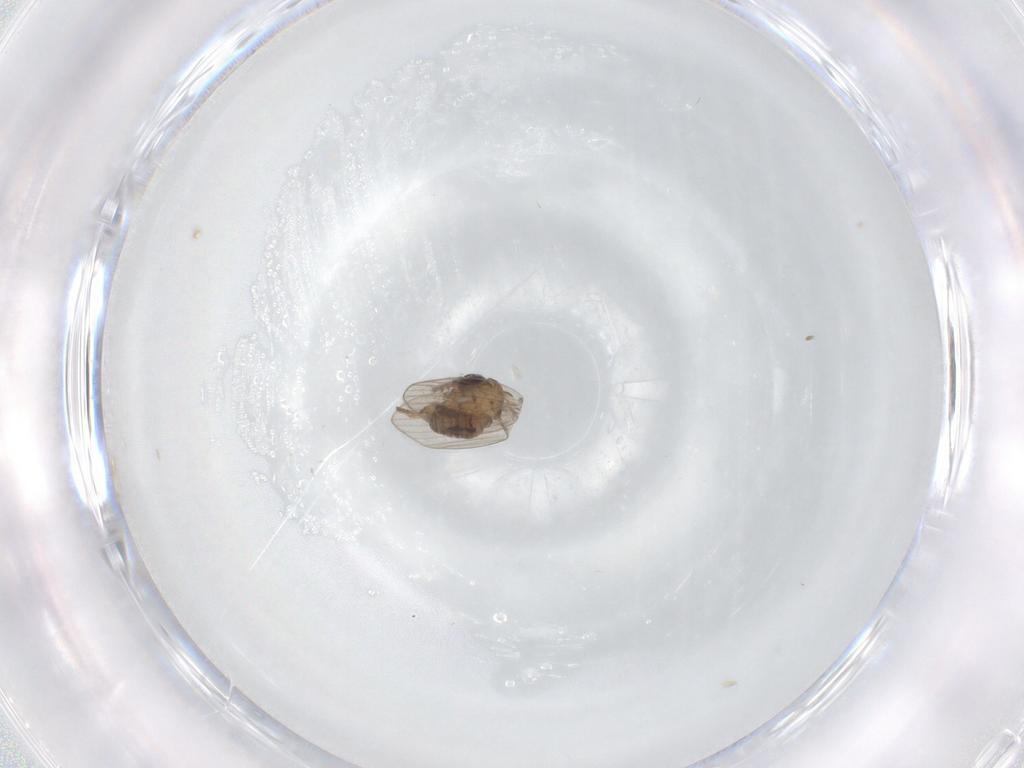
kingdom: Animalia
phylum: Arthropoda
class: Insecta
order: Diptera
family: Psychodidae
